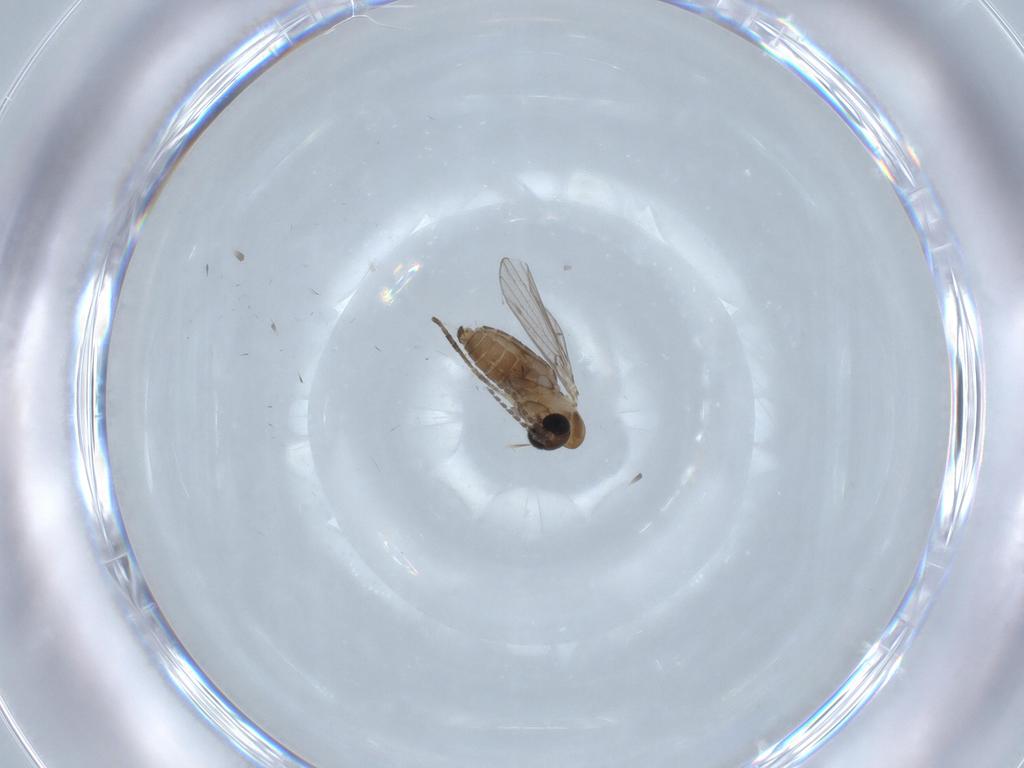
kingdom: Animalia
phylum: Arthropoda
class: Insecta
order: Diptera
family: Psychodidae
